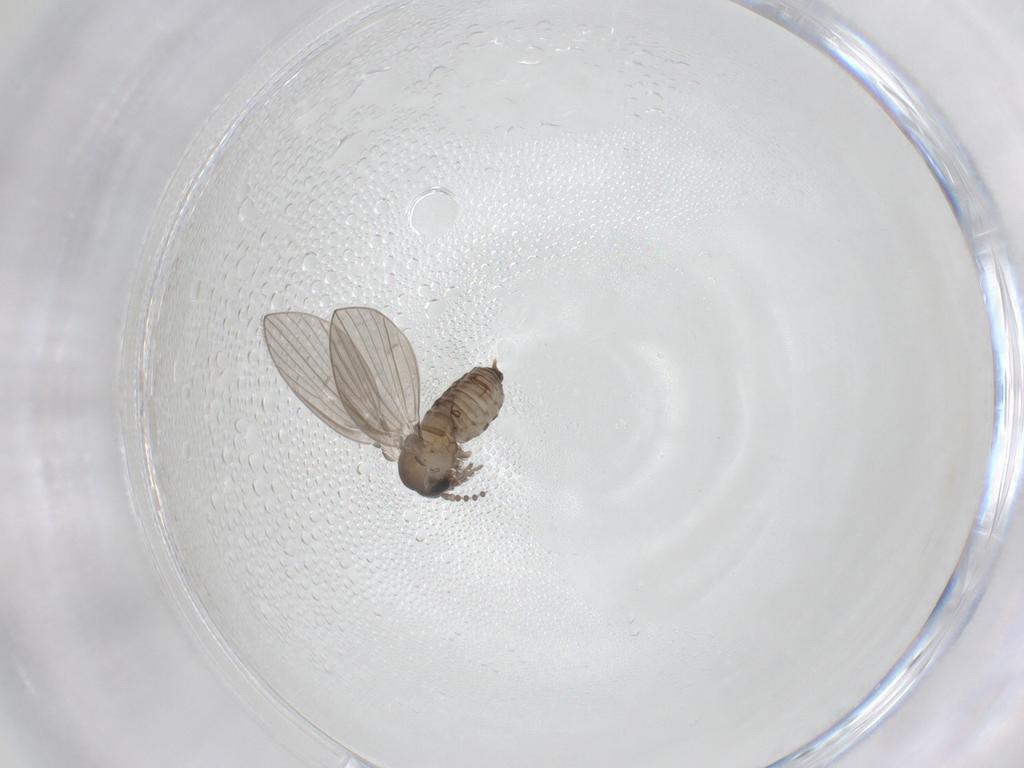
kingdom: Animalia
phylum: Arthropoda
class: Insecta
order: Diptera
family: Psychodidae
